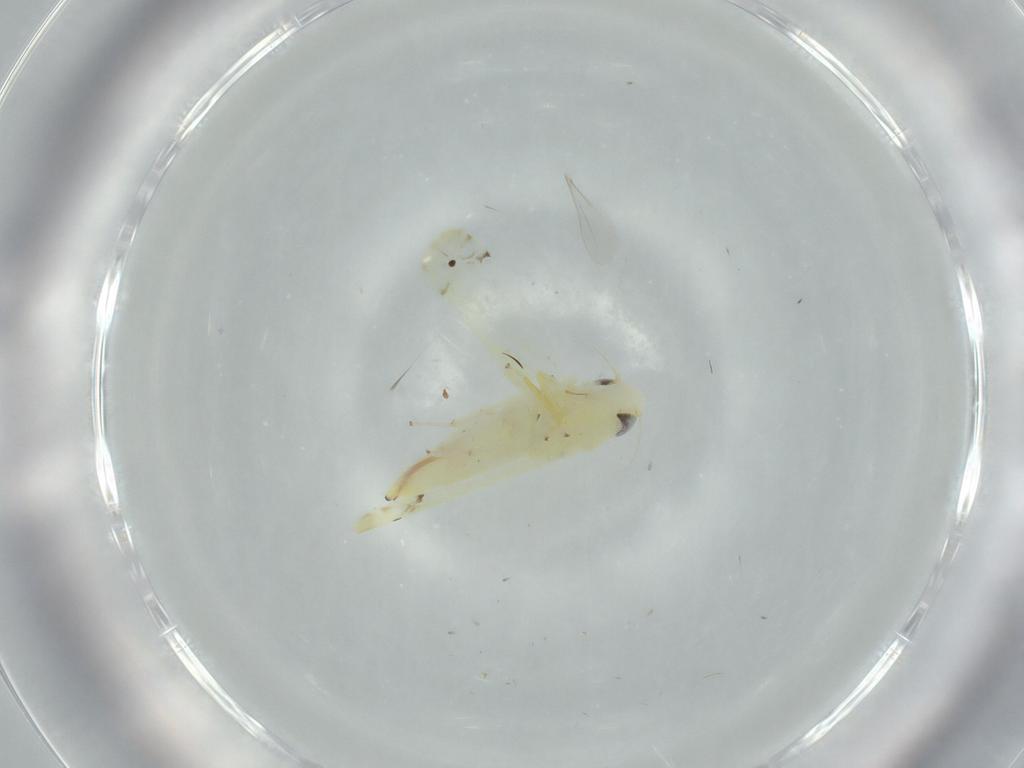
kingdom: Animalia
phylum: Arthropoda
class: Insecta
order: Hemiptera
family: Cicadellidae
